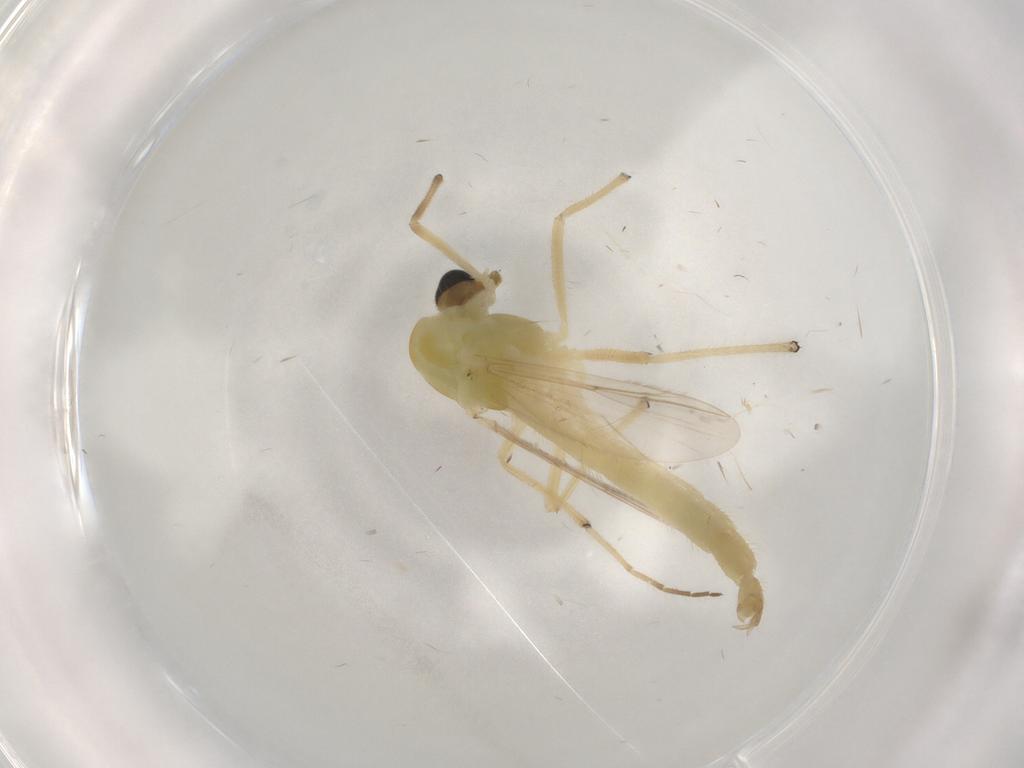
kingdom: Animalia
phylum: Arthropoda
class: Insecta
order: Diptera
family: Chironomidae
